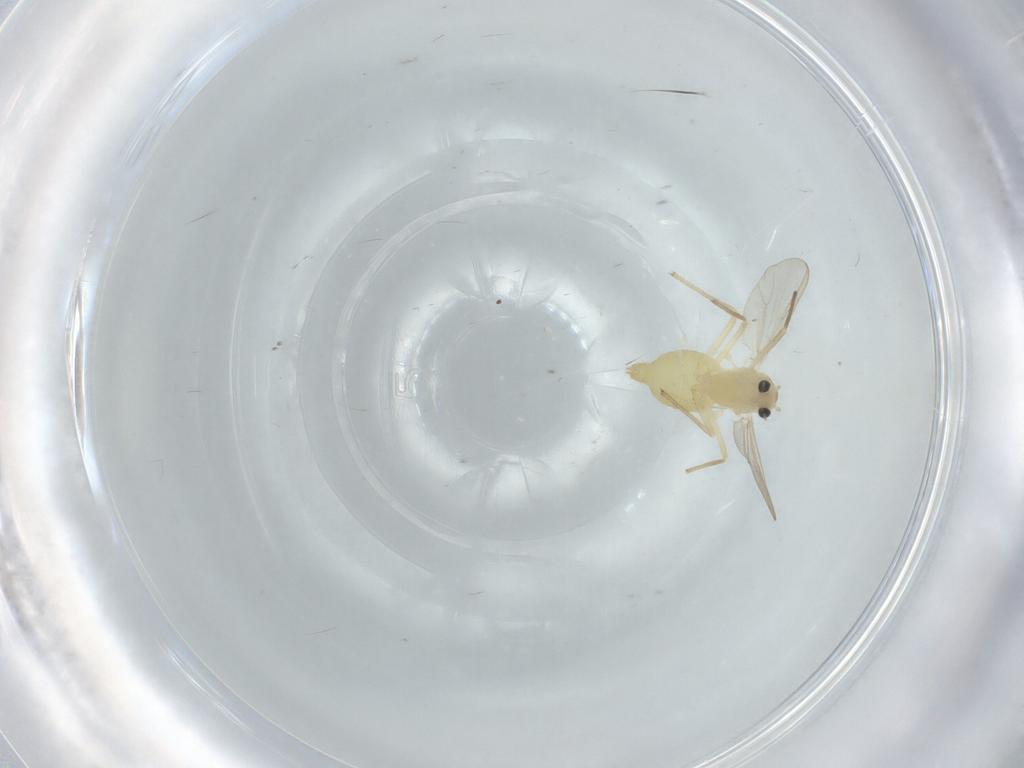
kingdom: Animalia
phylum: Arthropoda
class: Insecta
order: Diptera
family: Chironomidae
